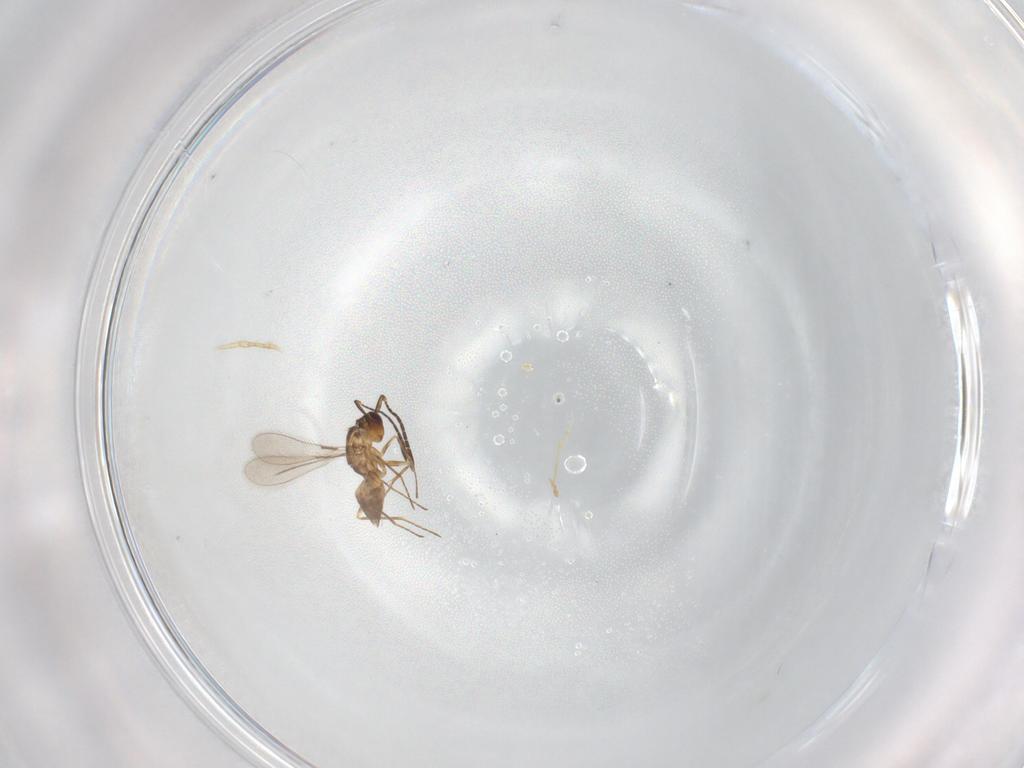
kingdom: Animalia
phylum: Arthropoda
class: Insecta
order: Hymenoptera
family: Mymaridae
